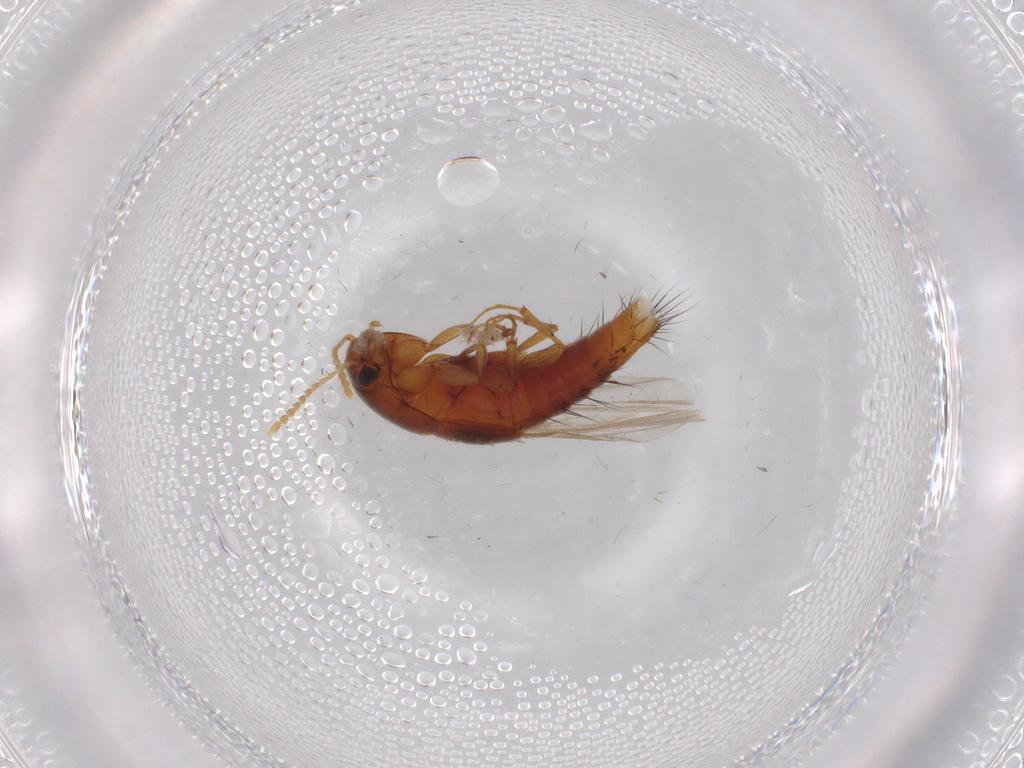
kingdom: Animalia
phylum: Arthropoda
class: Insecta
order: Coleoptera
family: Staphylinidae
